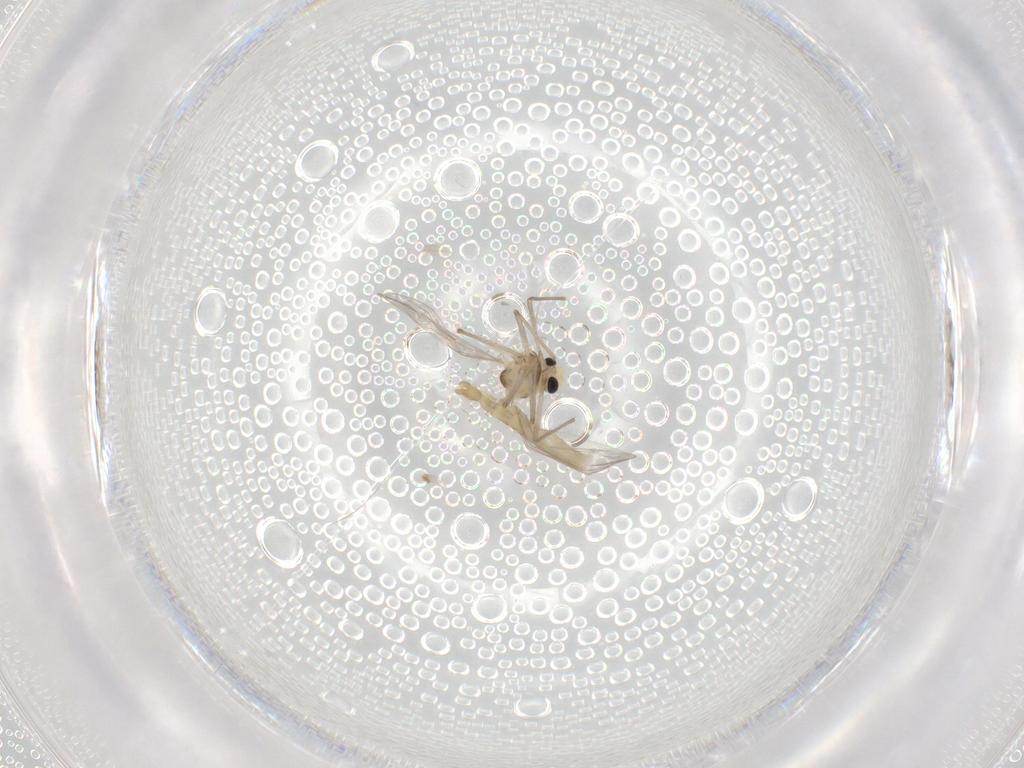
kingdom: Animalia
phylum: Arthropoda
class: Insecta
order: Diptera
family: Chironomidae
